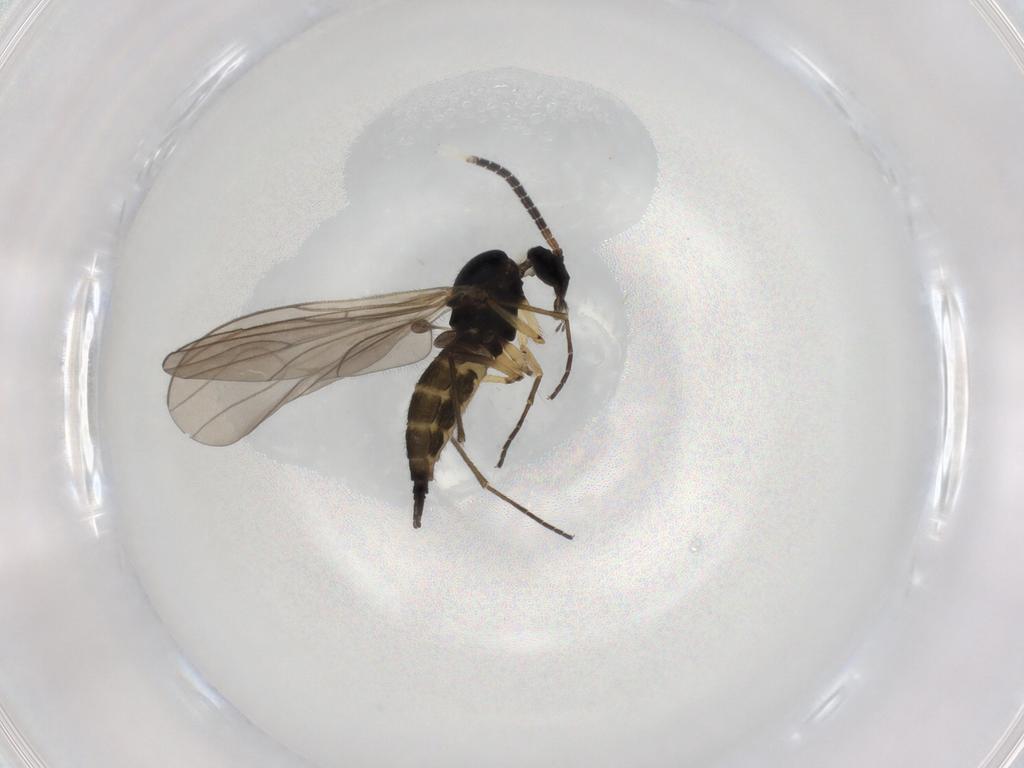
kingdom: Animalia
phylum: Arthropoda
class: Insecta
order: Diptera
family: Sciaridae
